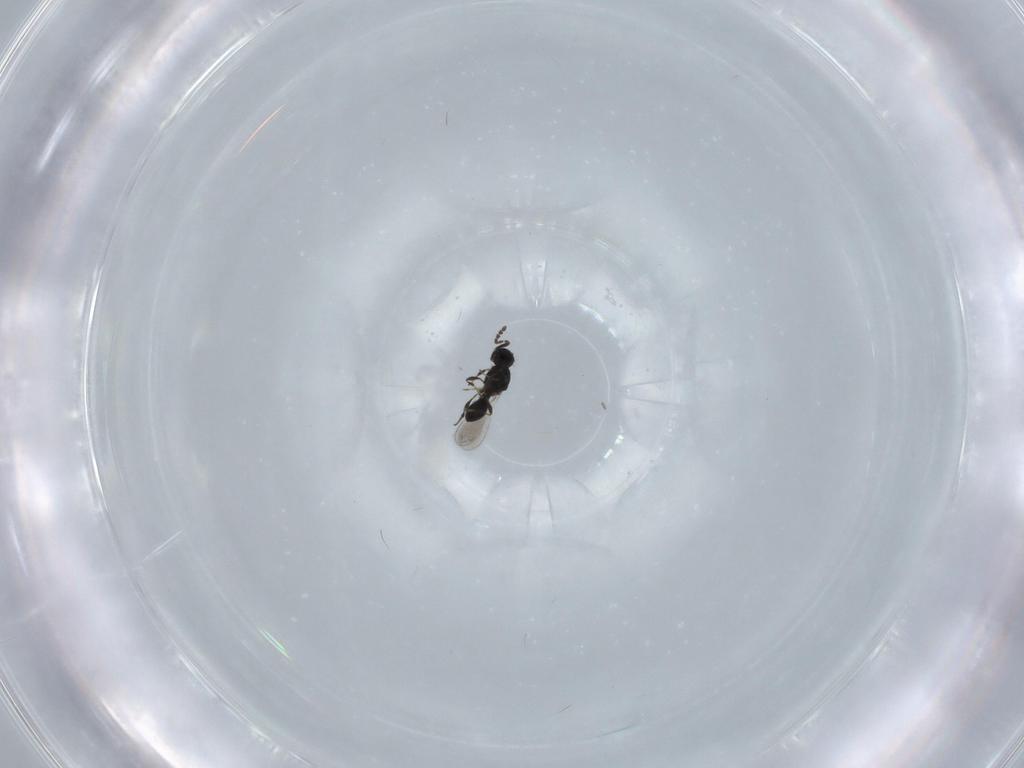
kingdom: Animalia
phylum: Arthropoda
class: Insecta
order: Hymenoptera
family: Platygastridae
